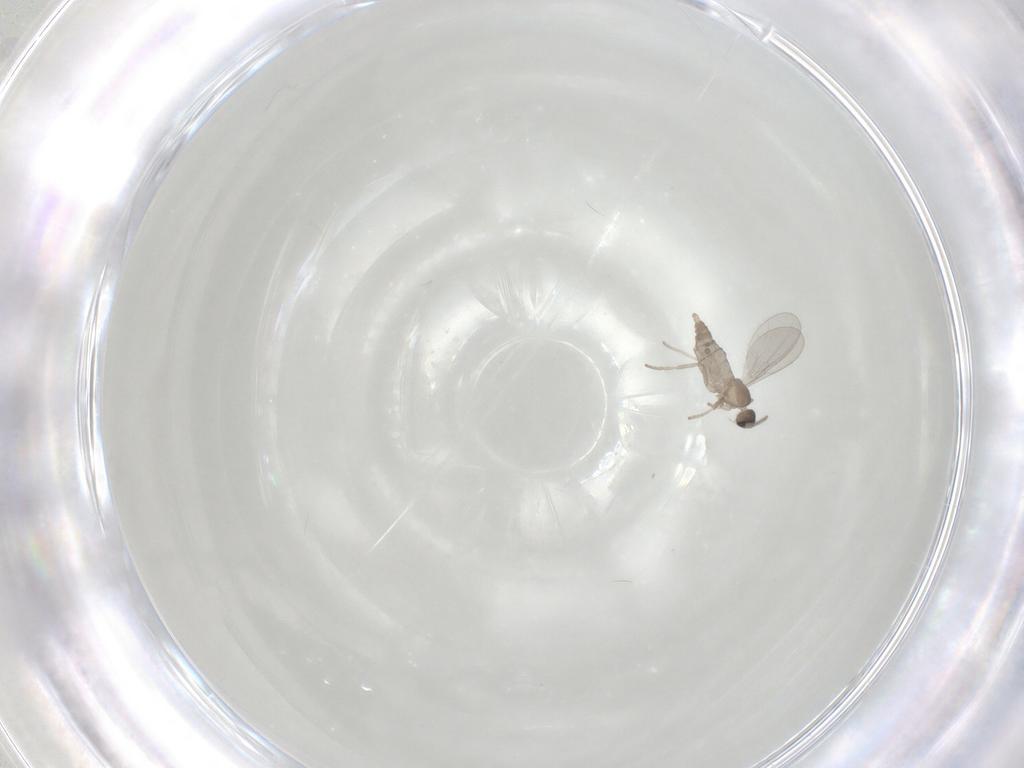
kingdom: Animalia
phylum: Arthropoda
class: Insecta
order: Diptera
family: Cecidomyiidae
